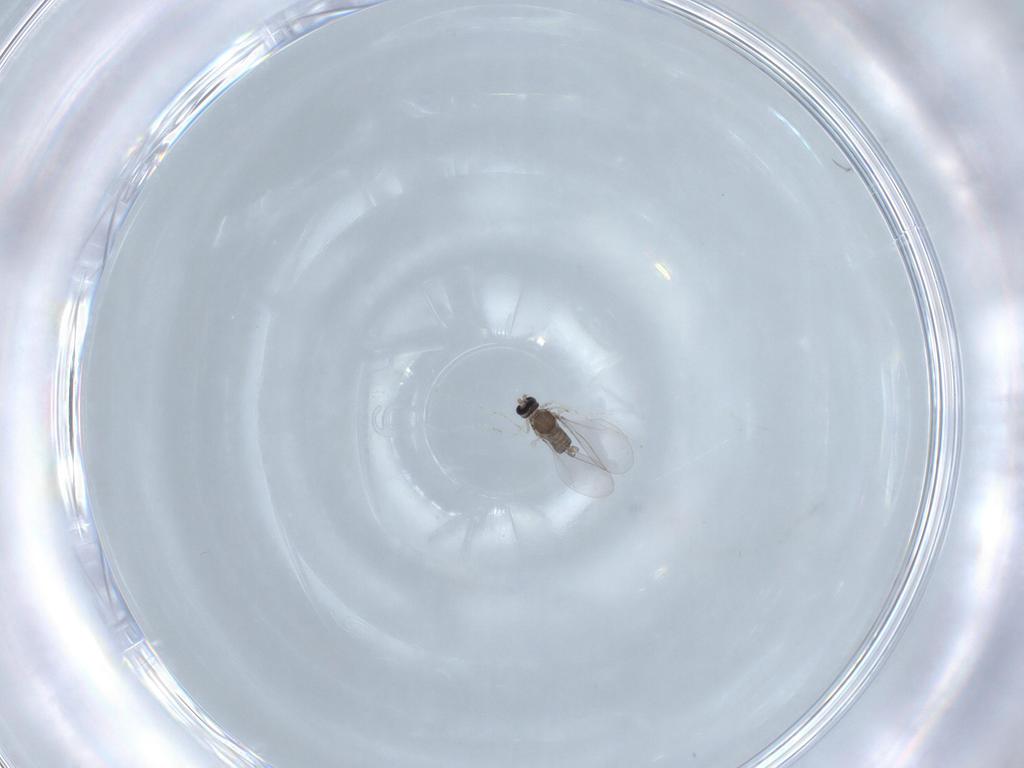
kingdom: Animalia
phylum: Arthropoda
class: Insecta
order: Diptera
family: Cecidomyiidae
